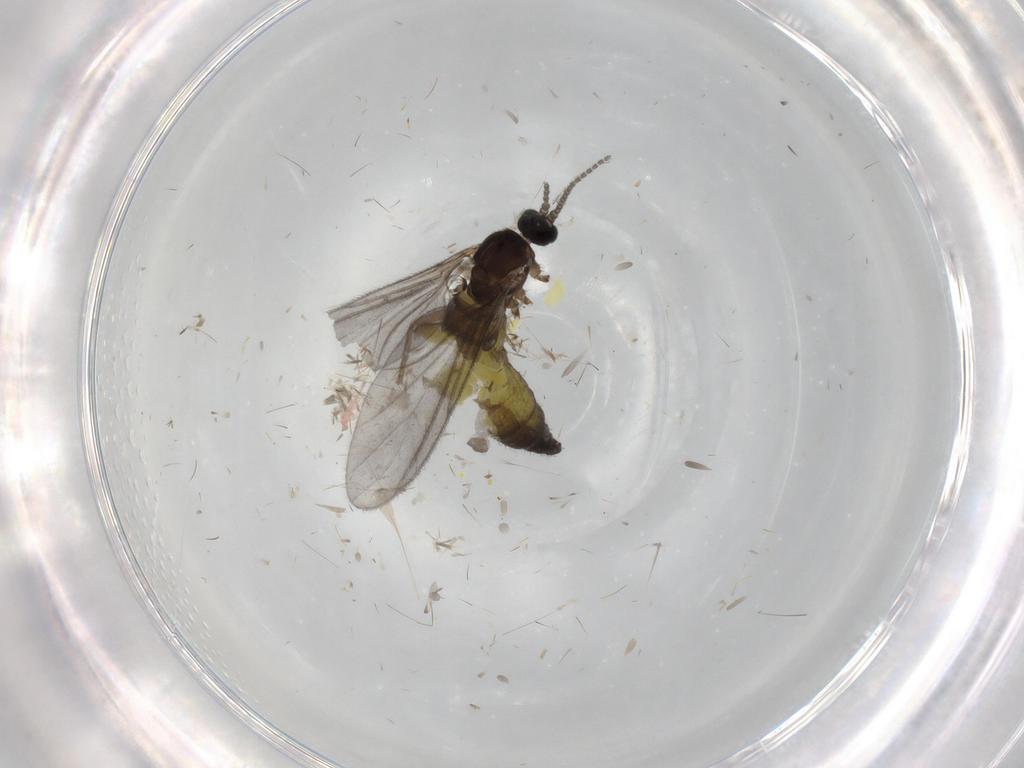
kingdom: Animalia
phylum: Arthropoda
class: Insecta
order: Diptera
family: Sciaridae
